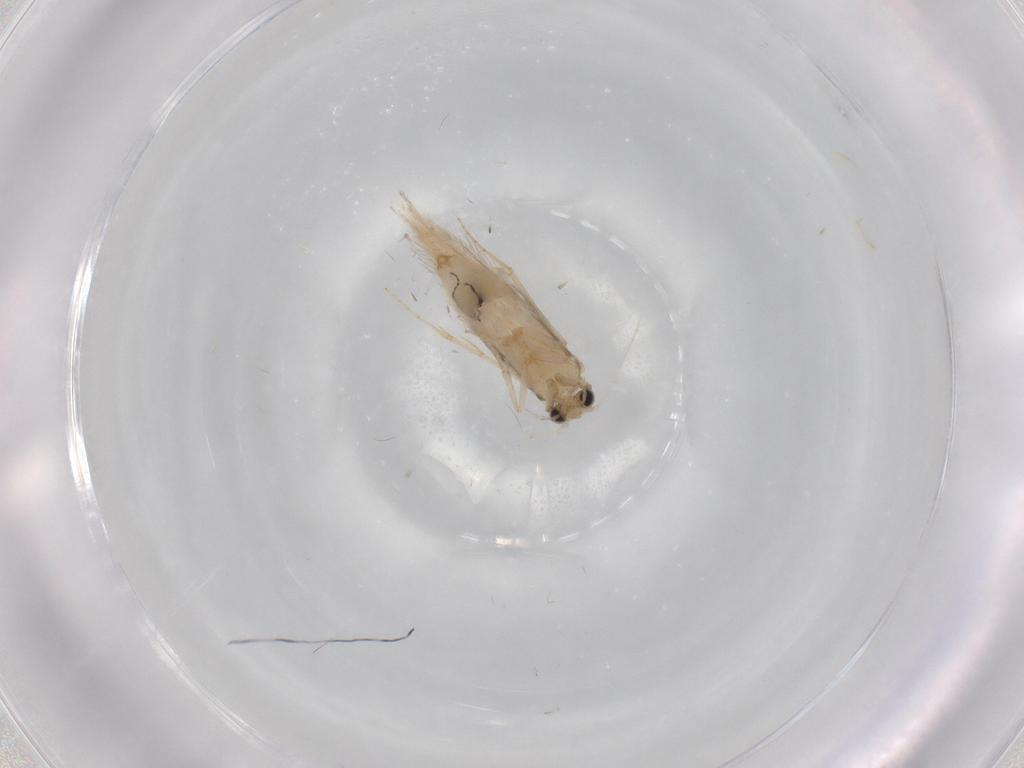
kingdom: Animalia
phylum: Arthropoda
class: Insecta
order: Trichoptera
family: Hydroptilidae
